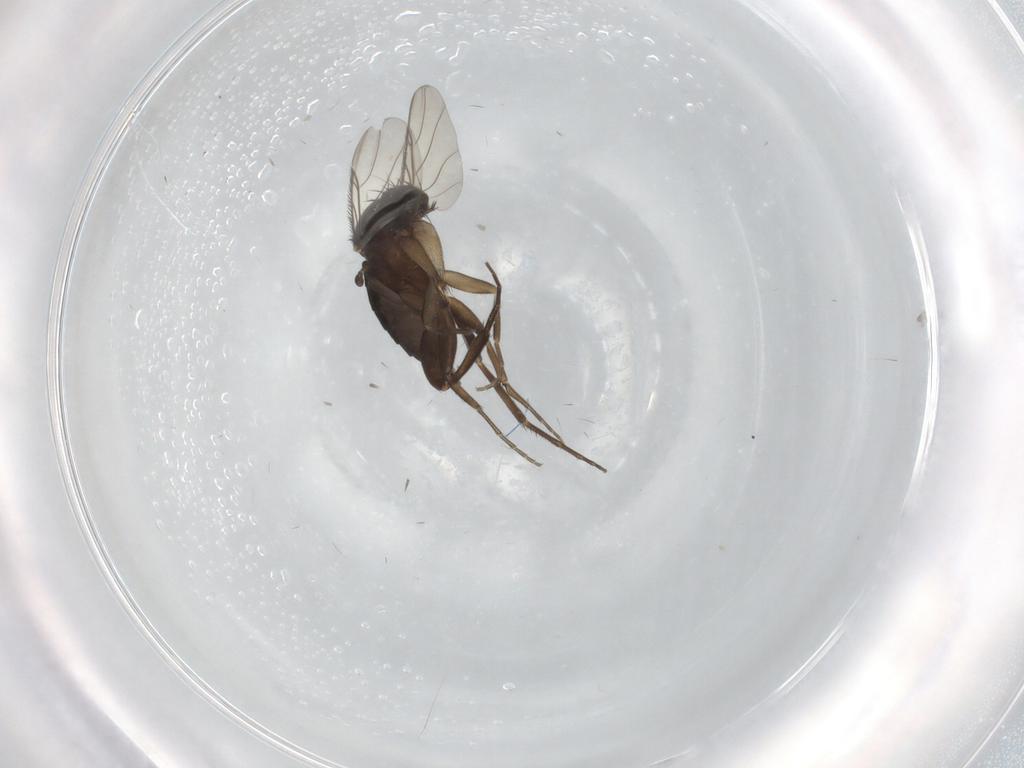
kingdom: Animalia
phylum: Arthropoda
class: Insecta
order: Diptera
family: Phoridae
